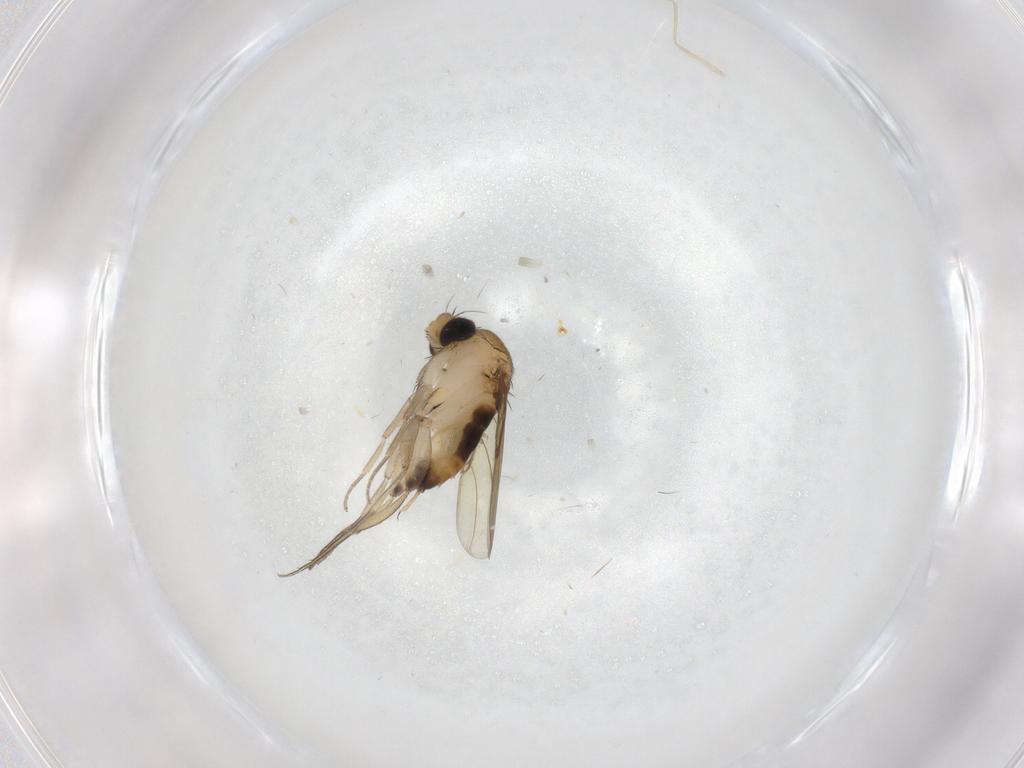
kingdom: Animalia
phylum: Arthropoda
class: Insecta
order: Diptera
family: Cecidomyiidae
